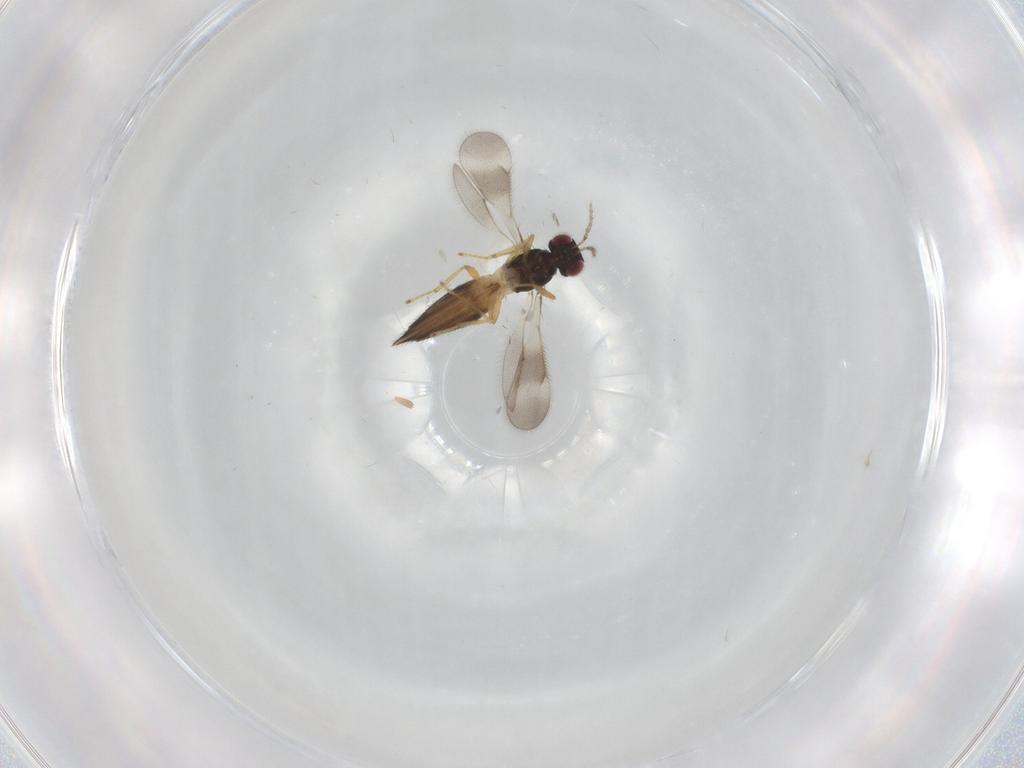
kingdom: Animalia
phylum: Arthropoda
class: Insecta
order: Hymenoptera
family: Eulophidae
